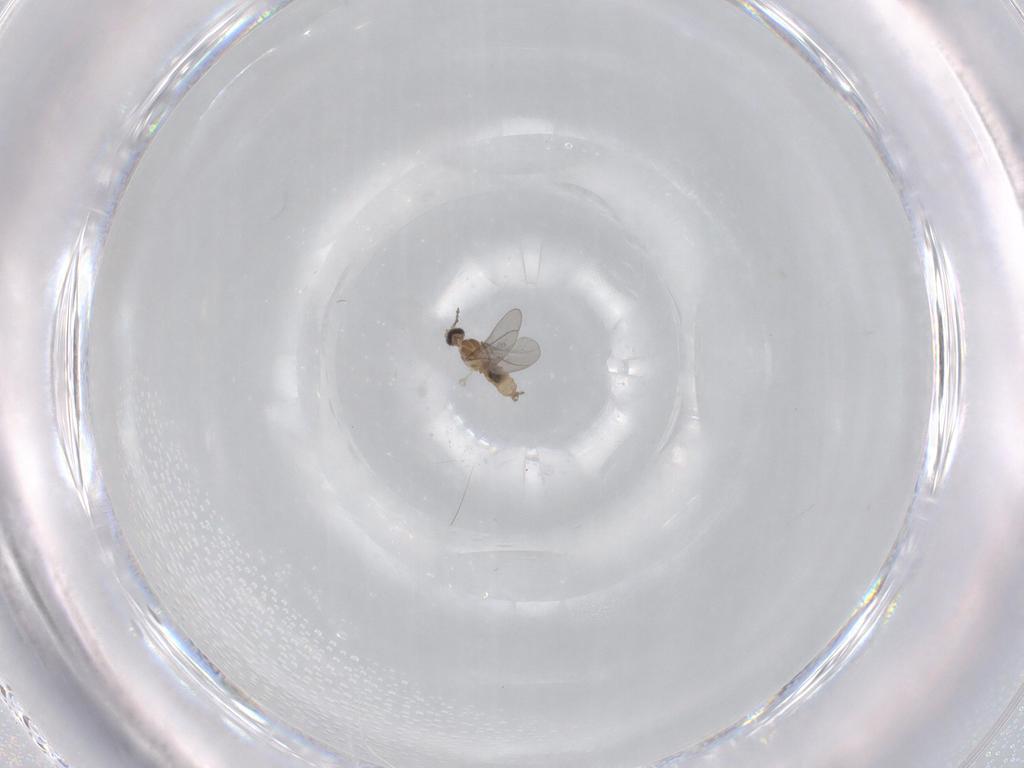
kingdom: Animalia
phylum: Arthropoda
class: Insecta
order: Diptera
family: Cecidomyiidae
